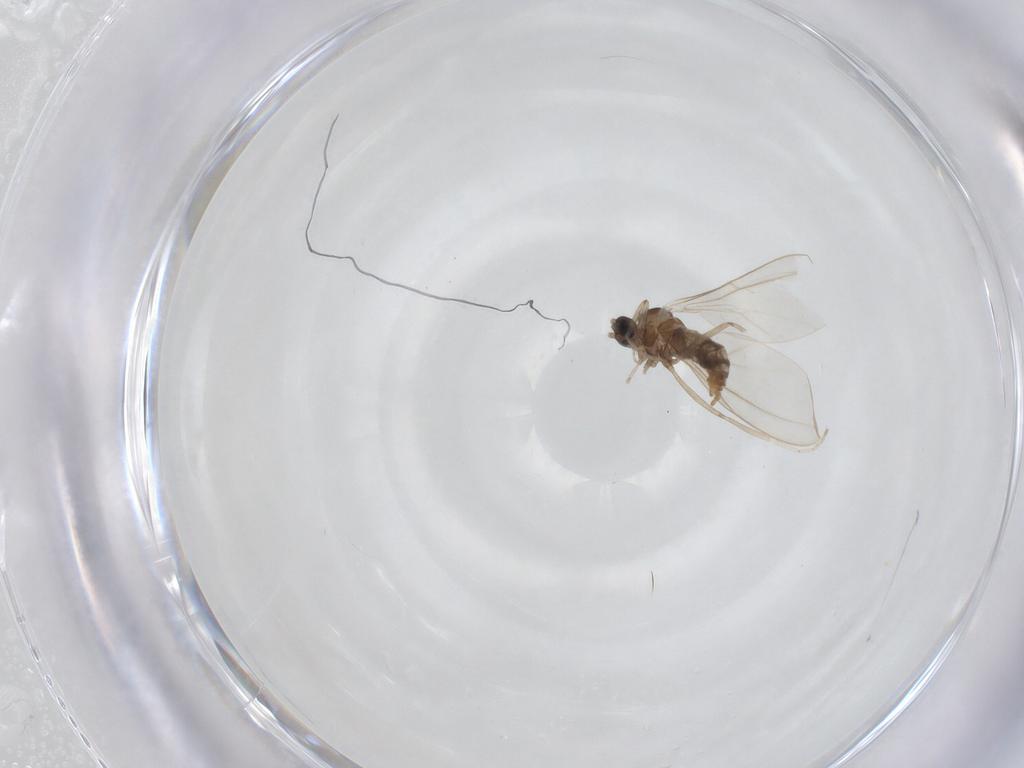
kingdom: Animalia
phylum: Arthropoda
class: Insecta
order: Diptera
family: Cecidomyiidae
